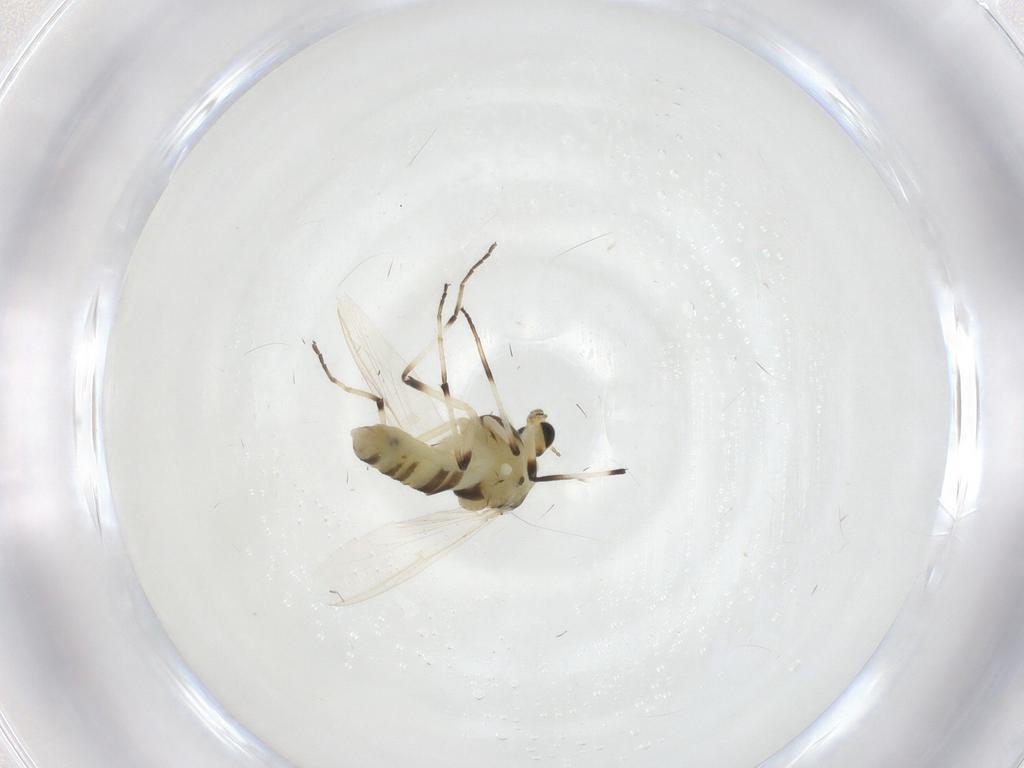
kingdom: Animalia
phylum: Arthropoda
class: Insecta
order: Diptera
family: Chironomidae
